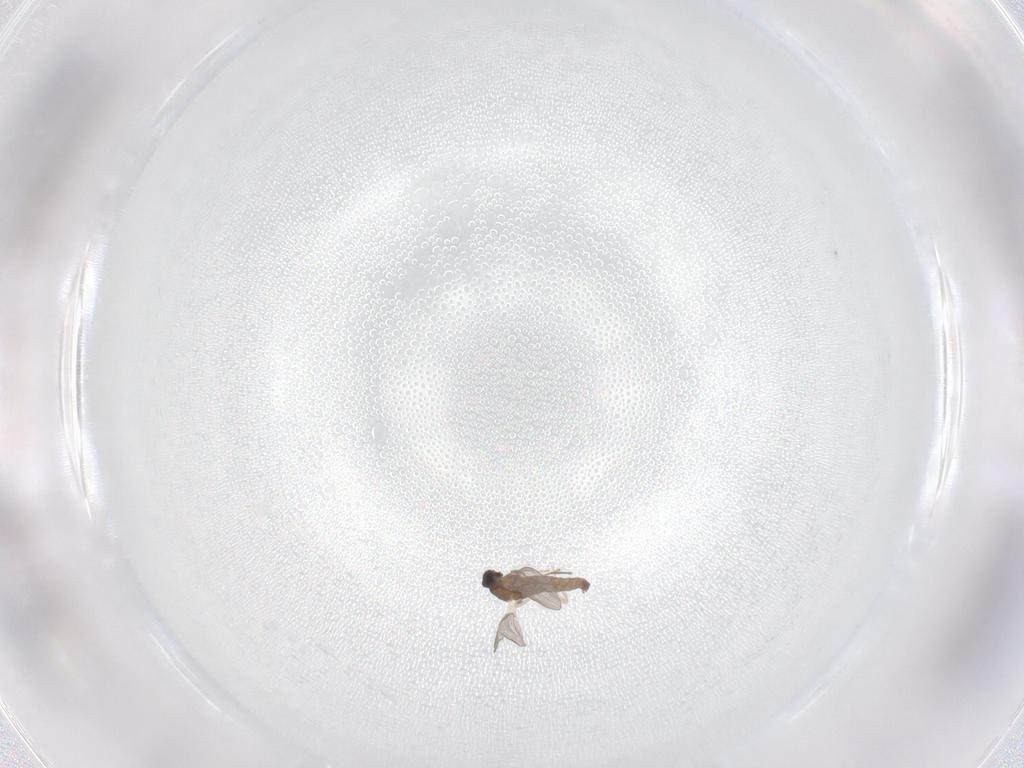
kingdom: Animalia
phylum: Arthropoda
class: Insecta
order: Diptera
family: Cecidomyiidae
